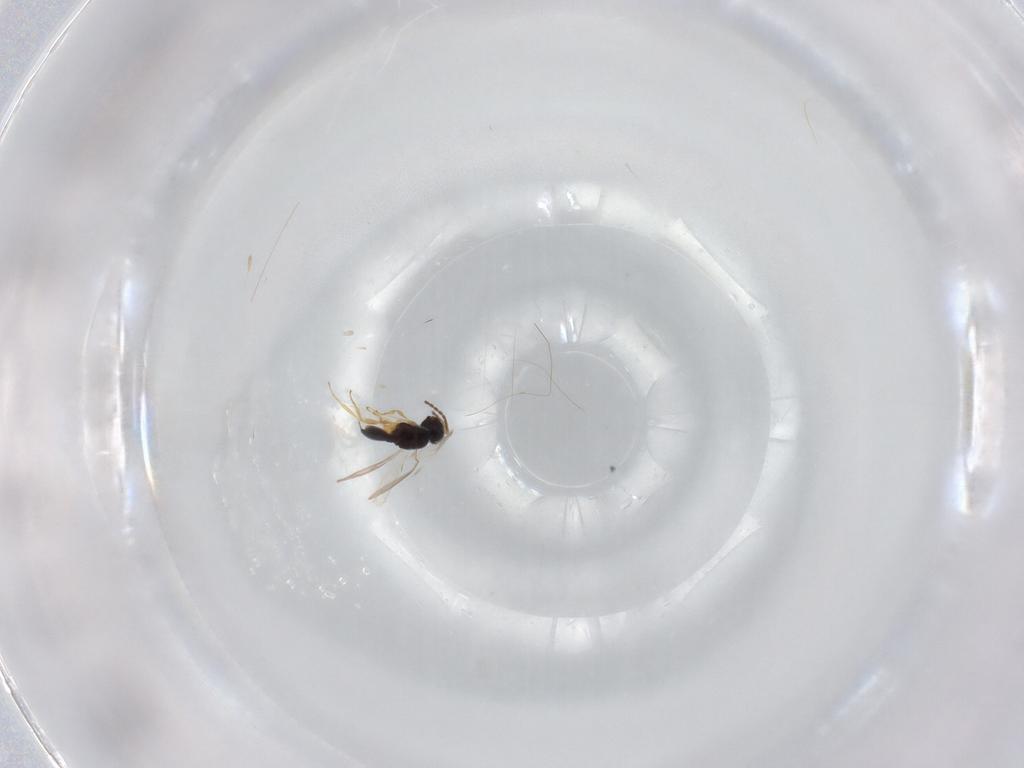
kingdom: Animalia
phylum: Arthropoda
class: Insecta
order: Hymenoptera
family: Scelionidae
